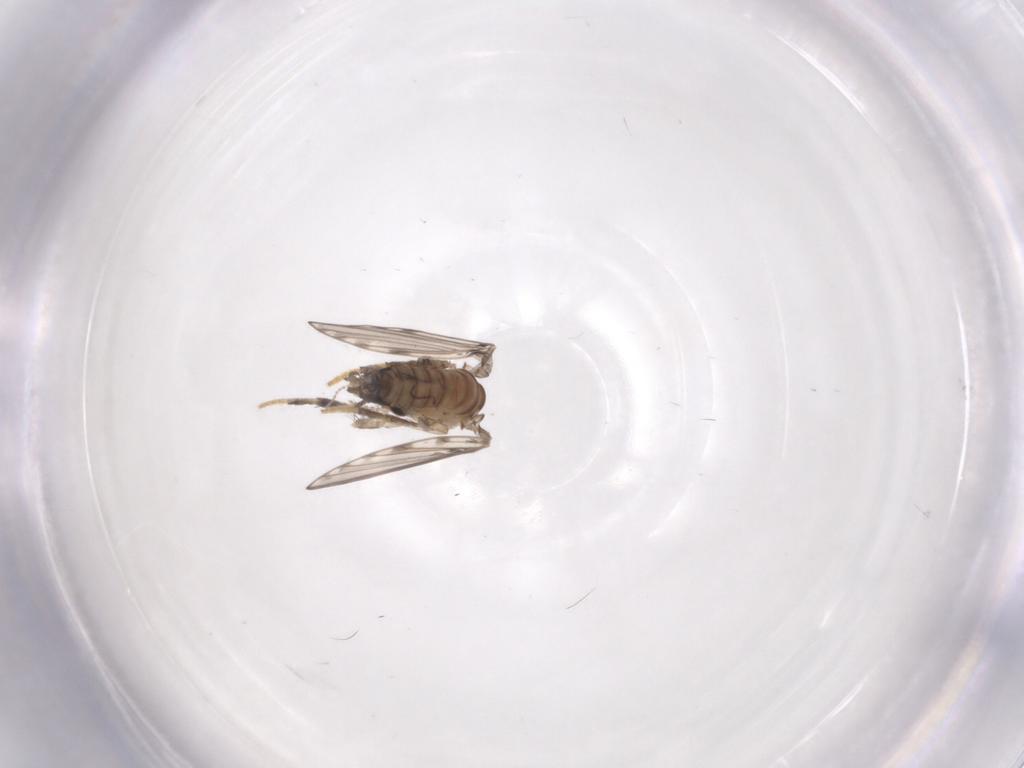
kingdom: Animalia
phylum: Arthropoda
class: Insecta
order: Diptera
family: Psychodidae
